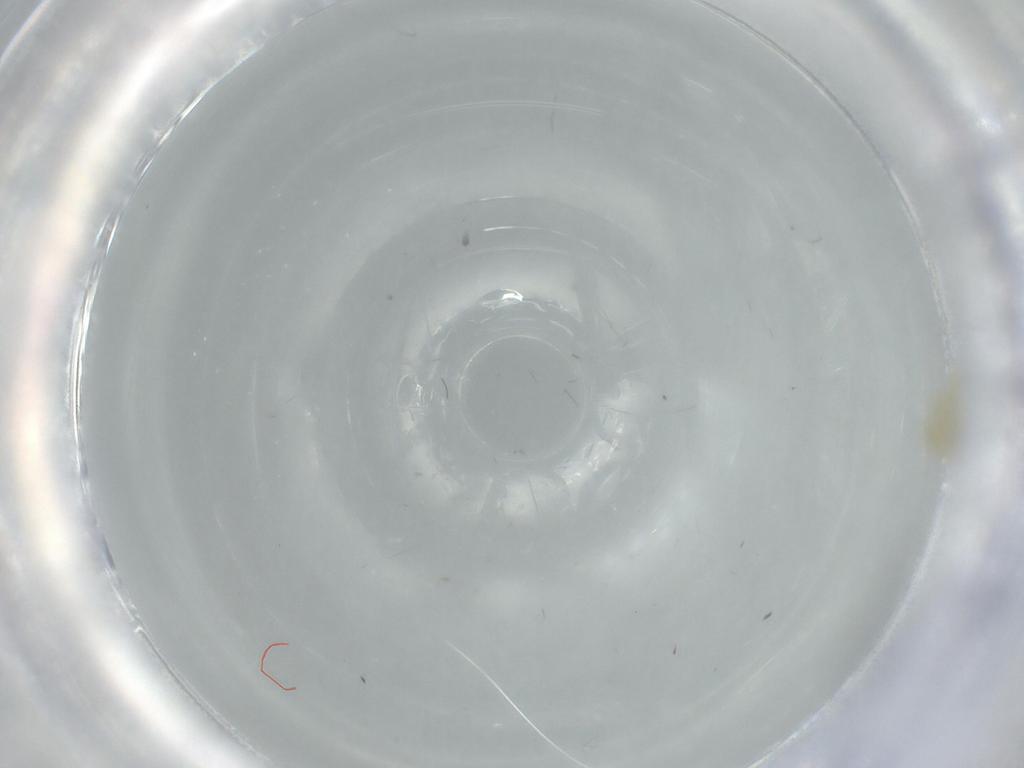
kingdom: Animalia
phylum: Arthropoda
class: Insecta
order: Diptera
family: Anthomyiidae
